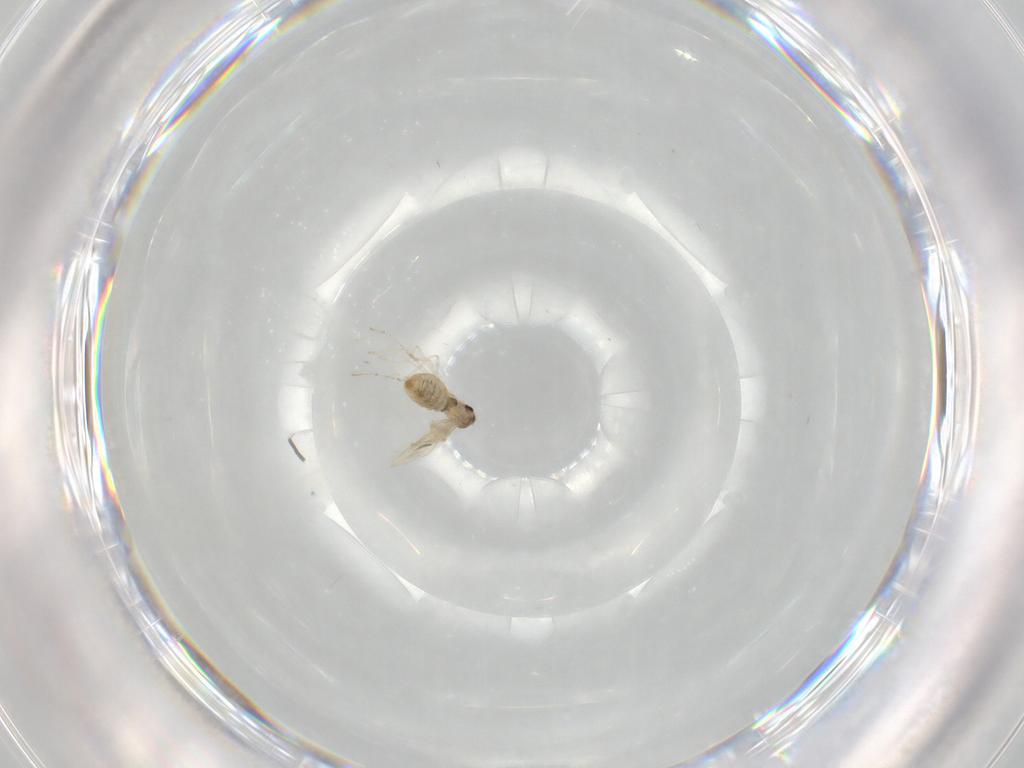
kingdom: Animalia
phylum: Arthropoda
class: Insecta
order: Diptera
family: Cecidomyiidae
